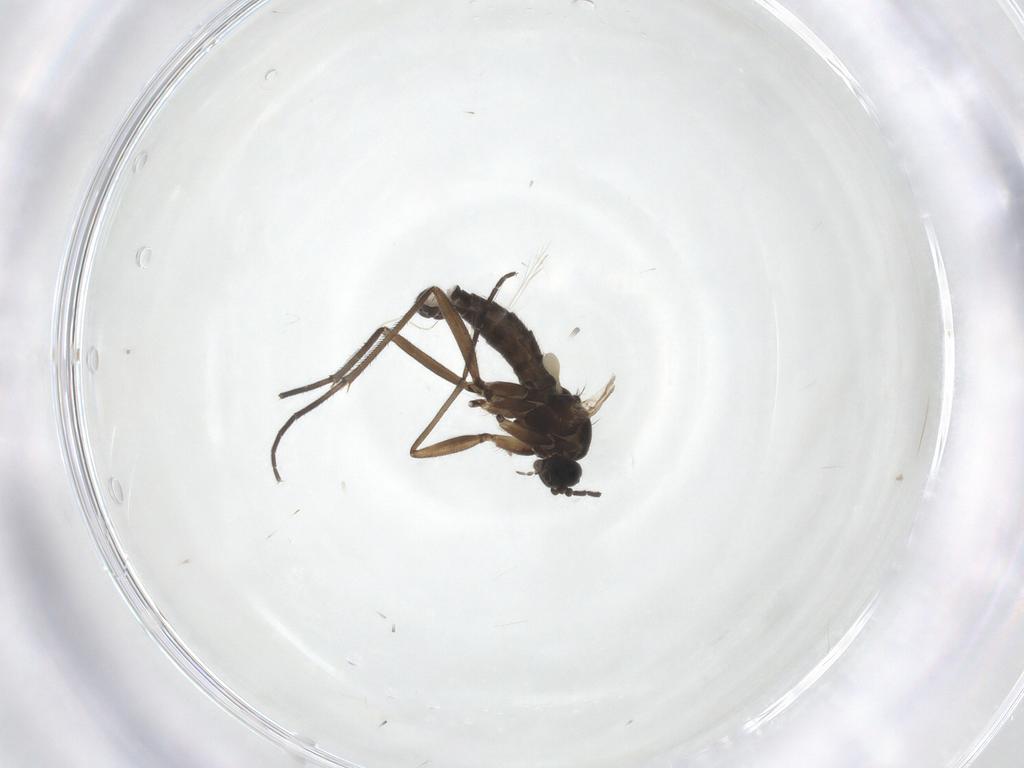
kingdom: Animalia
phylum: Arthropoda
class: Insecta
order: Diptera
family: Sciaridae
